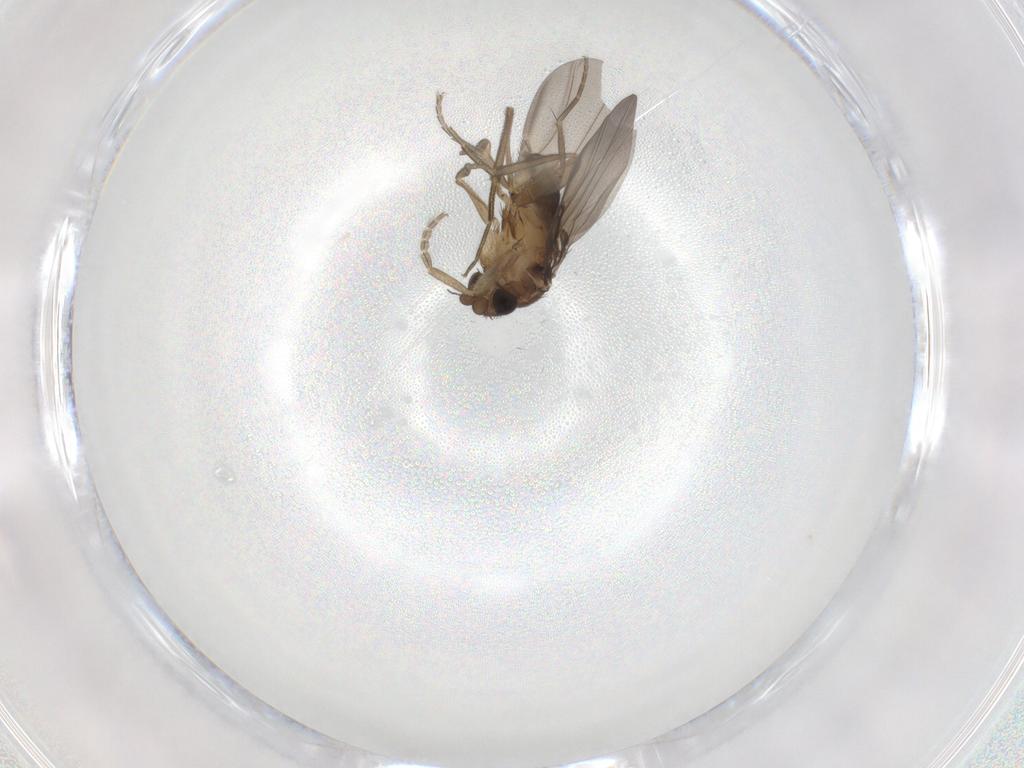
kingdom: Animalia
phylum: Arthropoda
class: Insecta
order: Diptera
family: Phoridae
